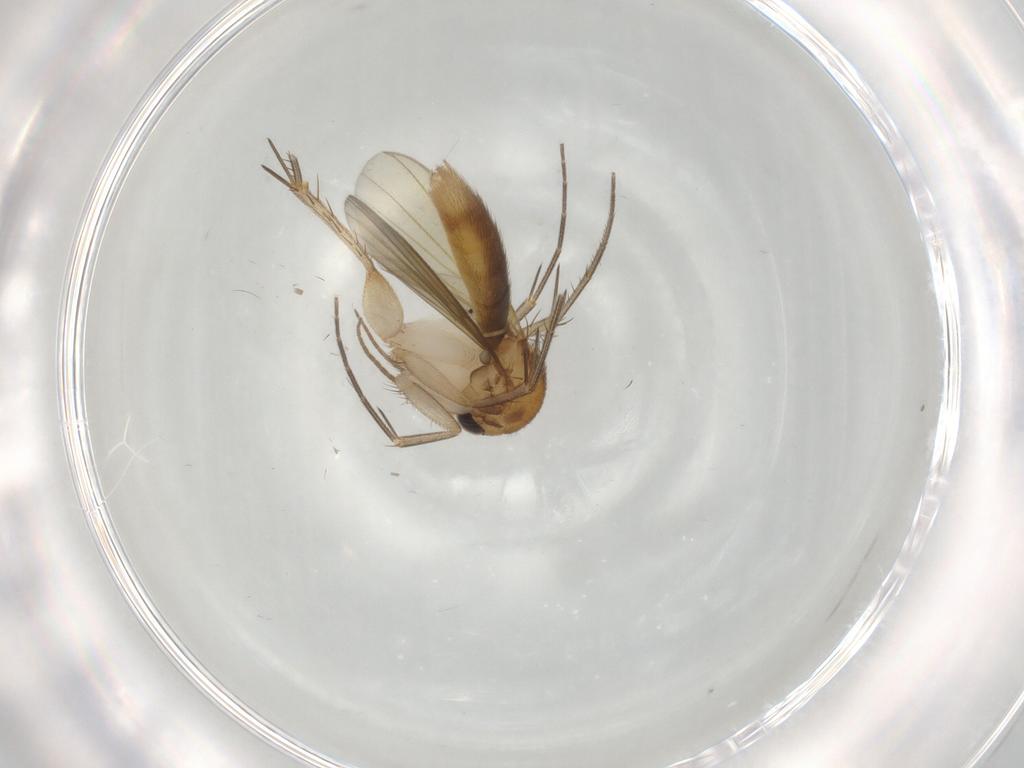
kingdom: Animalia
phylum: Arthropoda
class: Insecta
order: Diptera
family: Mycetophilidae
